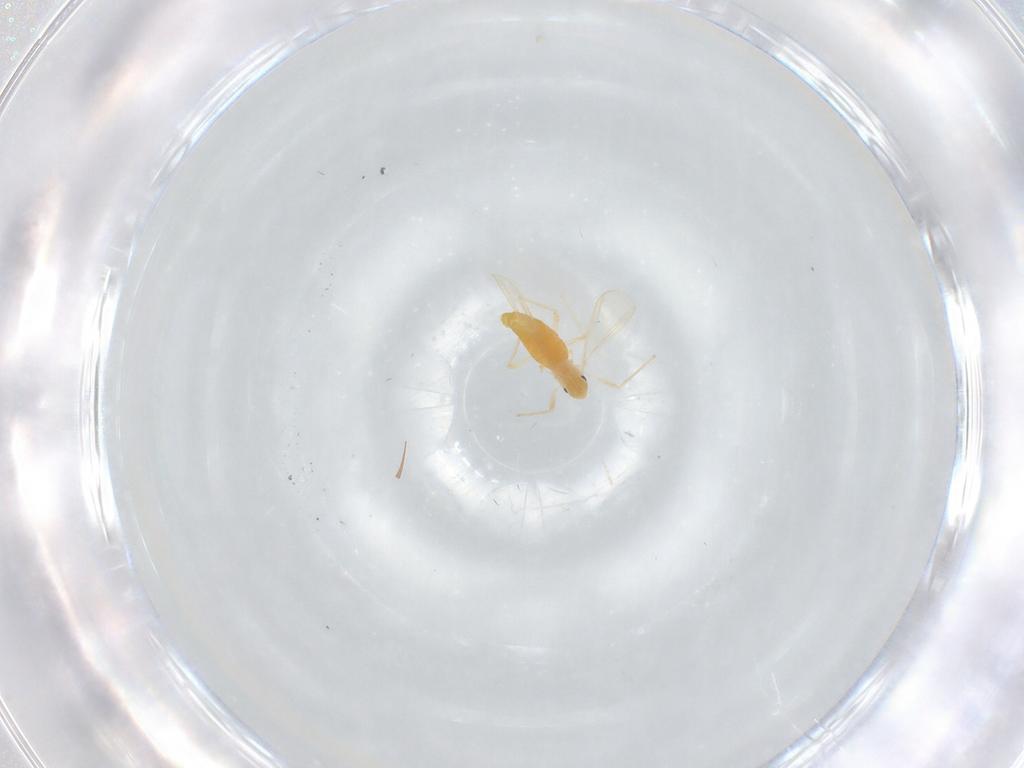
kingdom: Animalia
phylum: Arthropoda
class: Insecta
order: Diptera
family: Chironomidae
